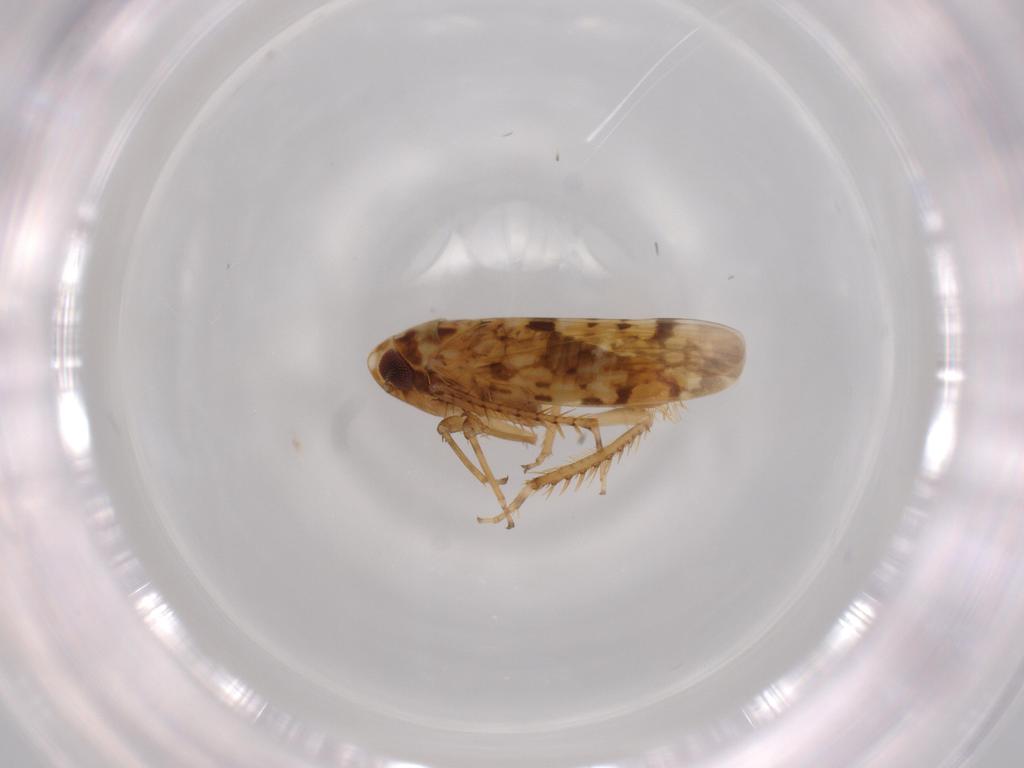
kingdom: Animalia
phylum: Arthropoda
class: Insecta
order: Hemiptera
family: Cicadellidae
